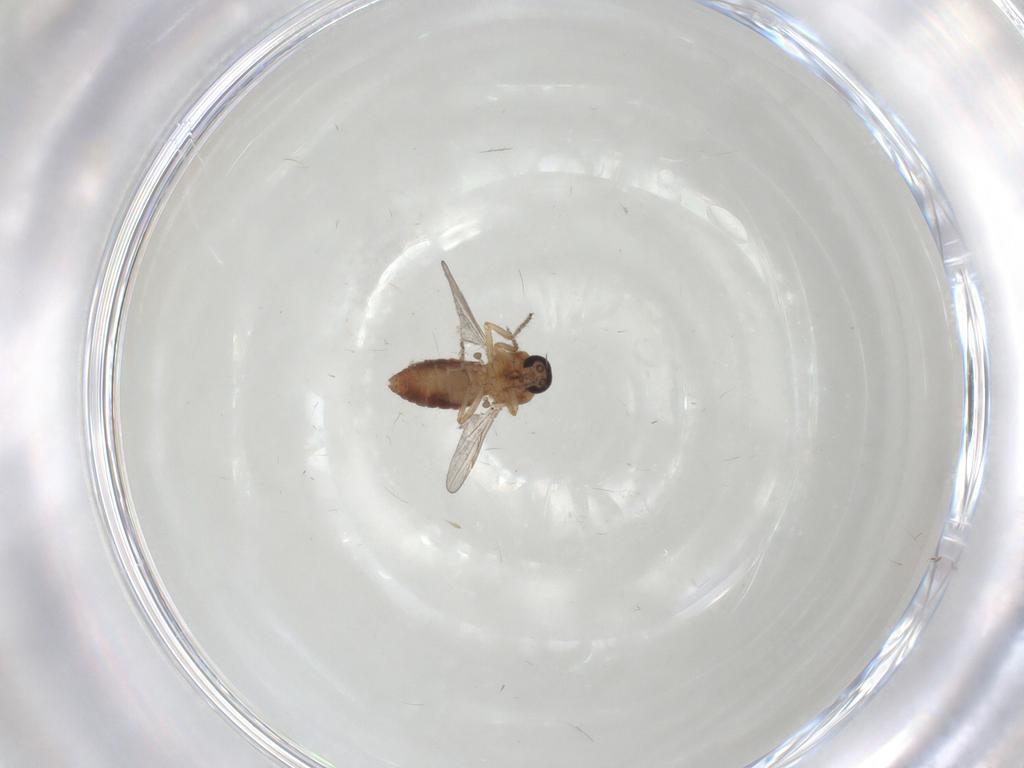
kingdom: Animalia
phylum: Arthropoda
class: Insecta
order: Diptera
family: Ceratopogonidae
